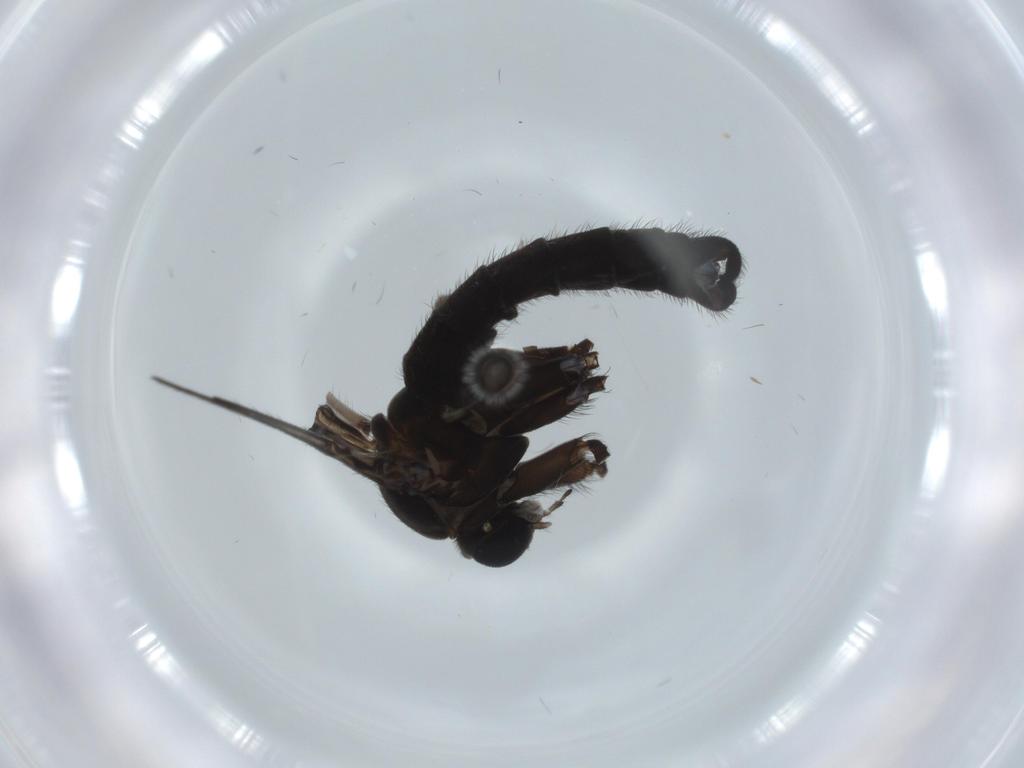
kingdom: Animalia
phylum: Arthropoda
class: Insecta
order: Diptera
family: Sciaridae
